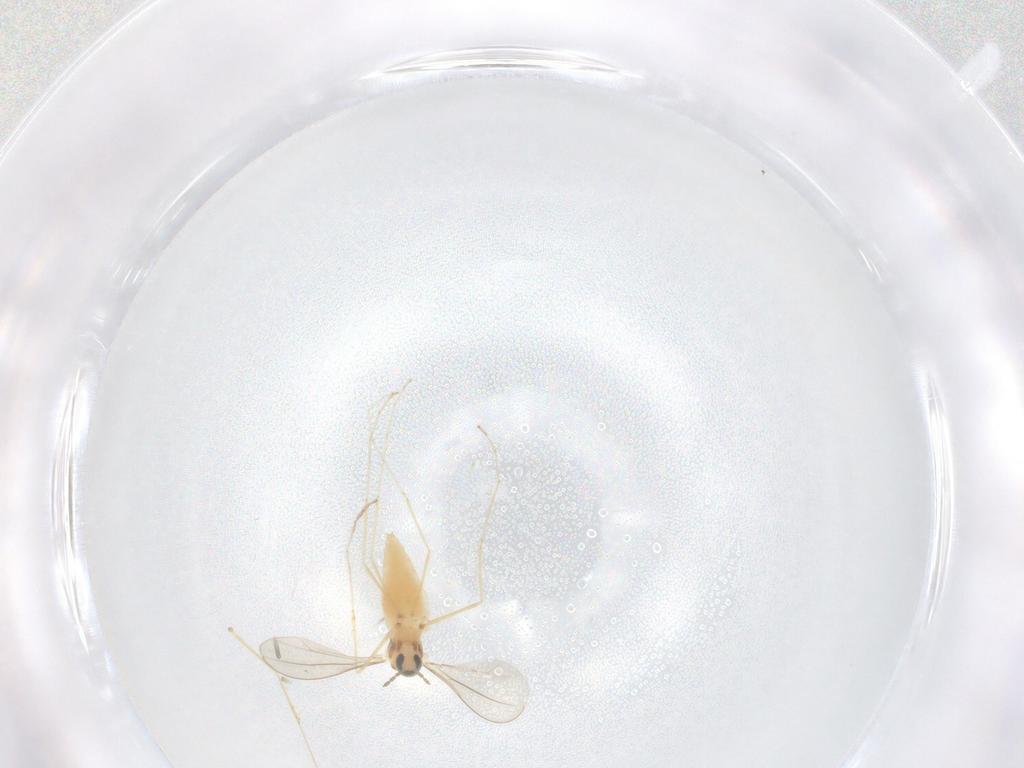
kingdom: Animalia
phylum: Arthropoda
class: Insecta
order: Diptera
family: Cecidomyiidae
